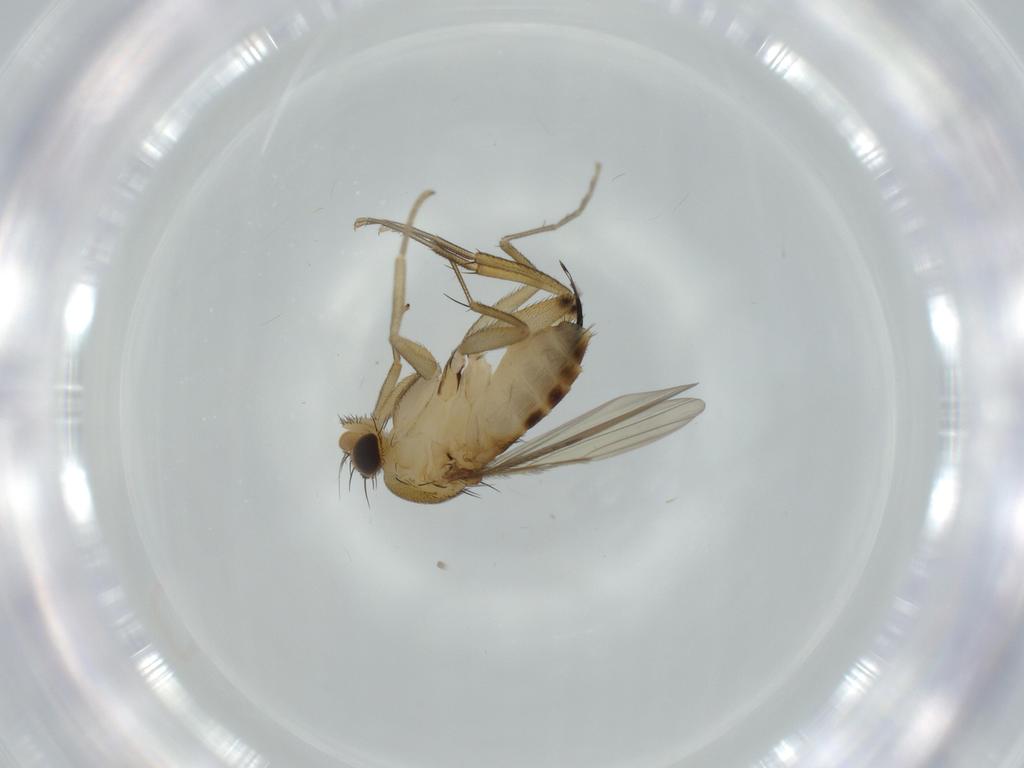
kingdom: Animalia
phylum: Arthropoda
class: Insecta
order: Diptera
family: Phoridae
